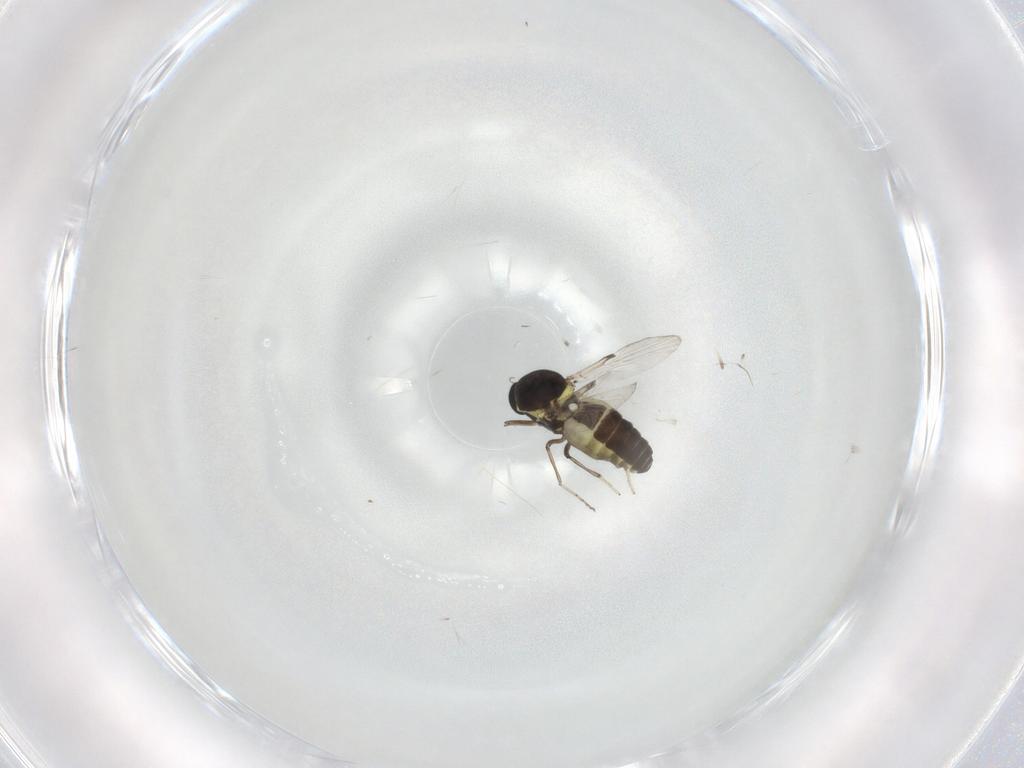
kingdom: Animalia
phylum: Arthropoda
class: Insecta
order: Diptera
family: Ceratopogonidae
